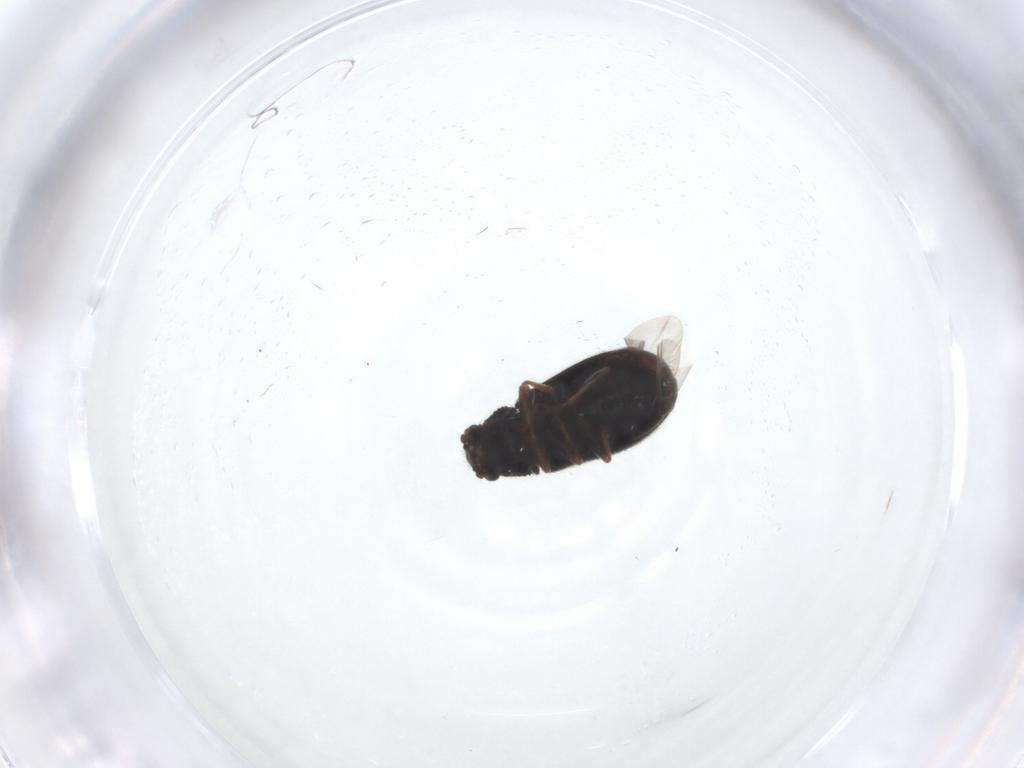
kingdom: Animalia
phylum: Arthropoda
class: Insecta
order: Coleoptera
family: Melyridae
